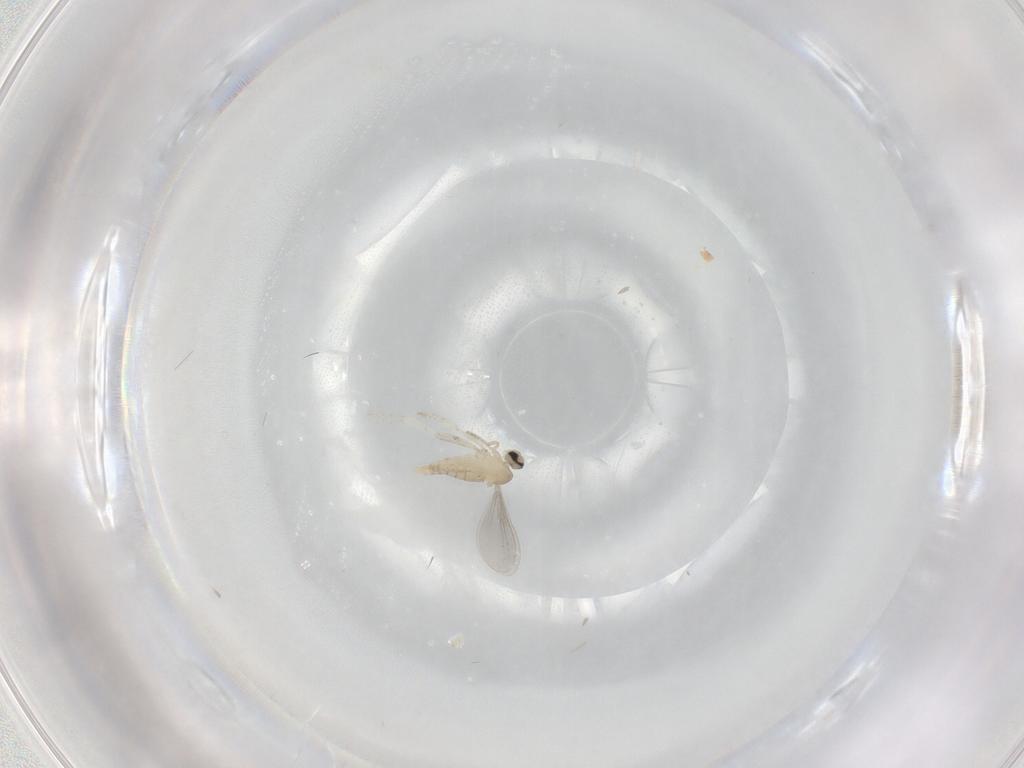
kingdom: Animalia
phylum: Arthropoda
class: Insecta
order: Diptera
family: Cecidomyiidae
